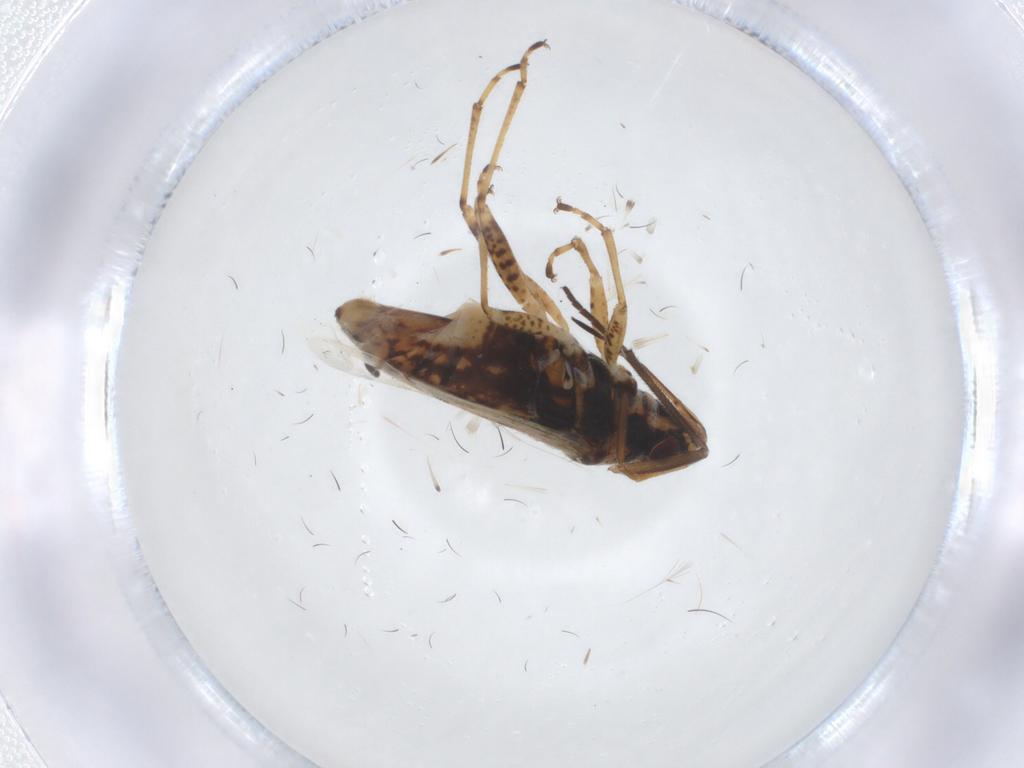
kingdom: Animalia
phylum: Arthropoda
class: Insecta
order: Hemiptera
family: Lygaeidae
